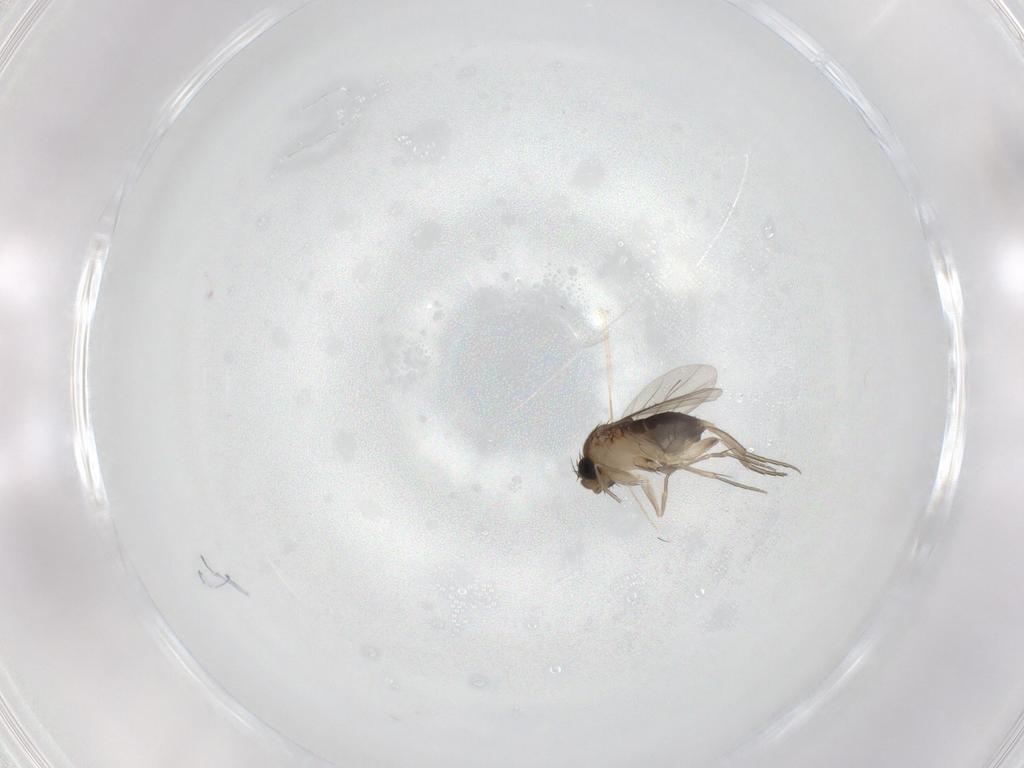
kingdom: Animalia
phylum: Arthropoda
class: Insecta
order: Diptera
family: Phoridae
